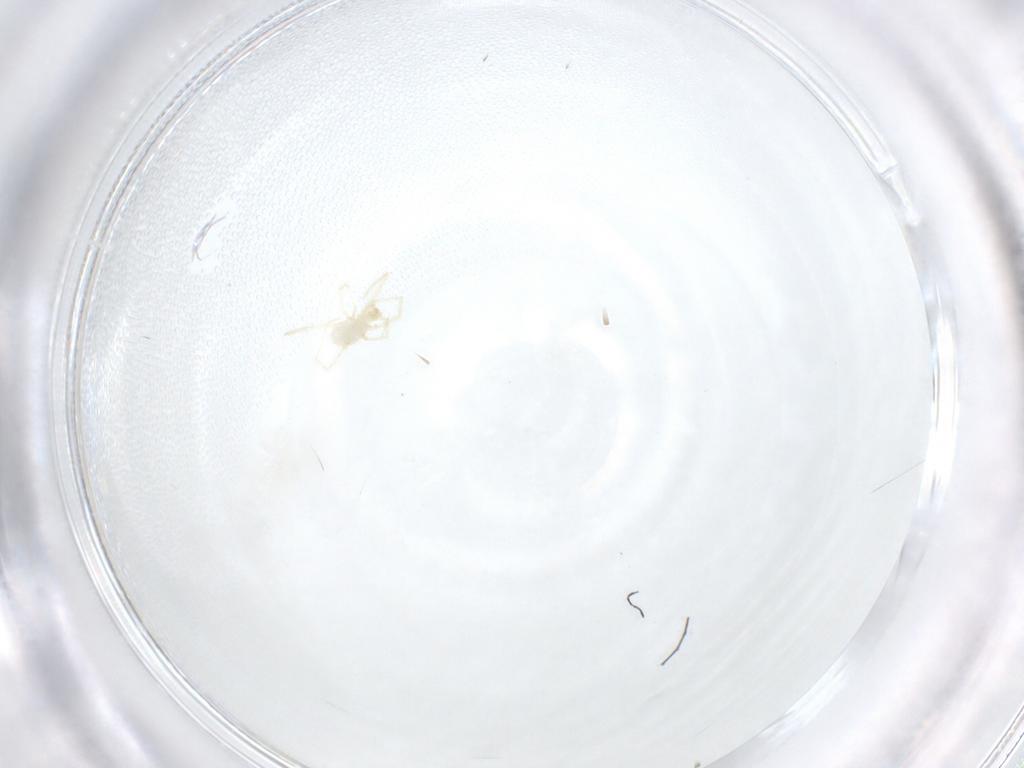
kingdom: Animalia
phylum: Arthropoda
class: Arachnida
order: Trombidiformes
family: Erythraeidae
